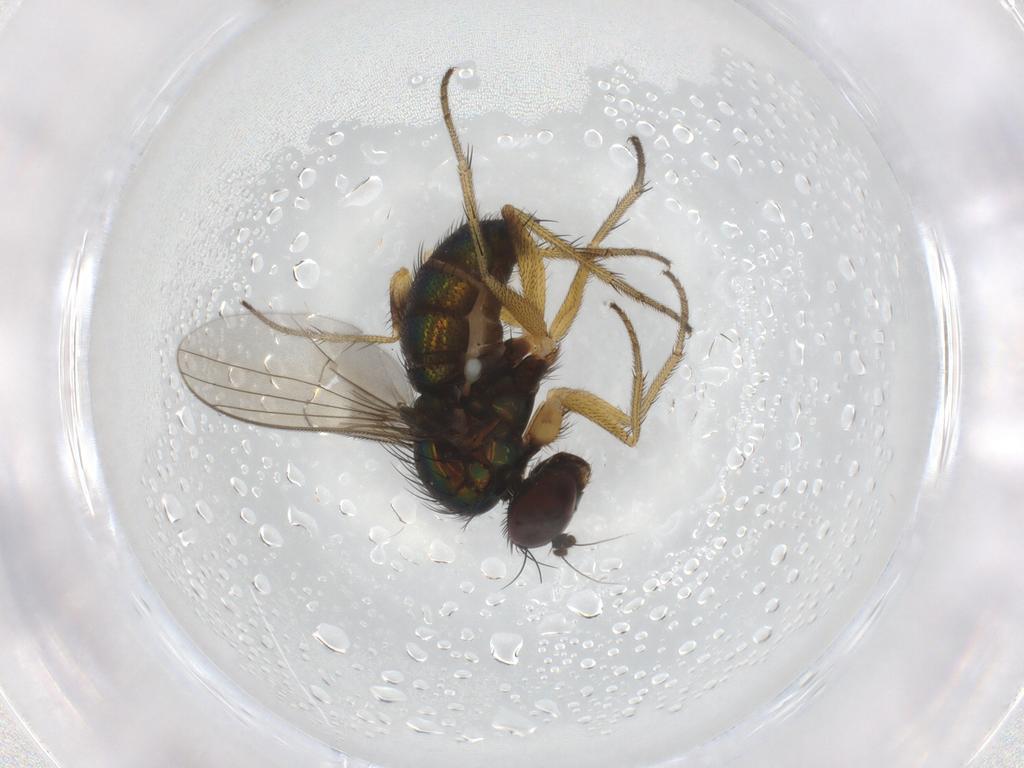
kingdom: Animalia
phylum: Arthropoda
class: Insecta
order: Diptera
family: Dolichopodidae
